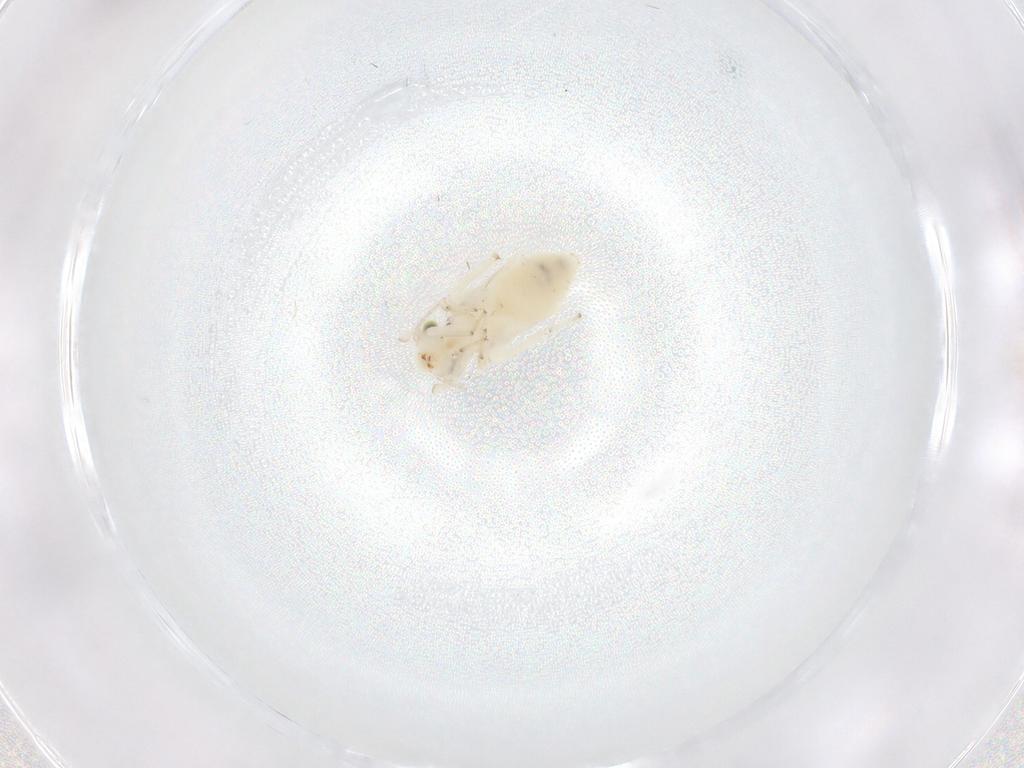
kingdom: Animalia
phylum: Arthropoda
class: Insecta
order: Psocodea
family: Lepidopsocidae
